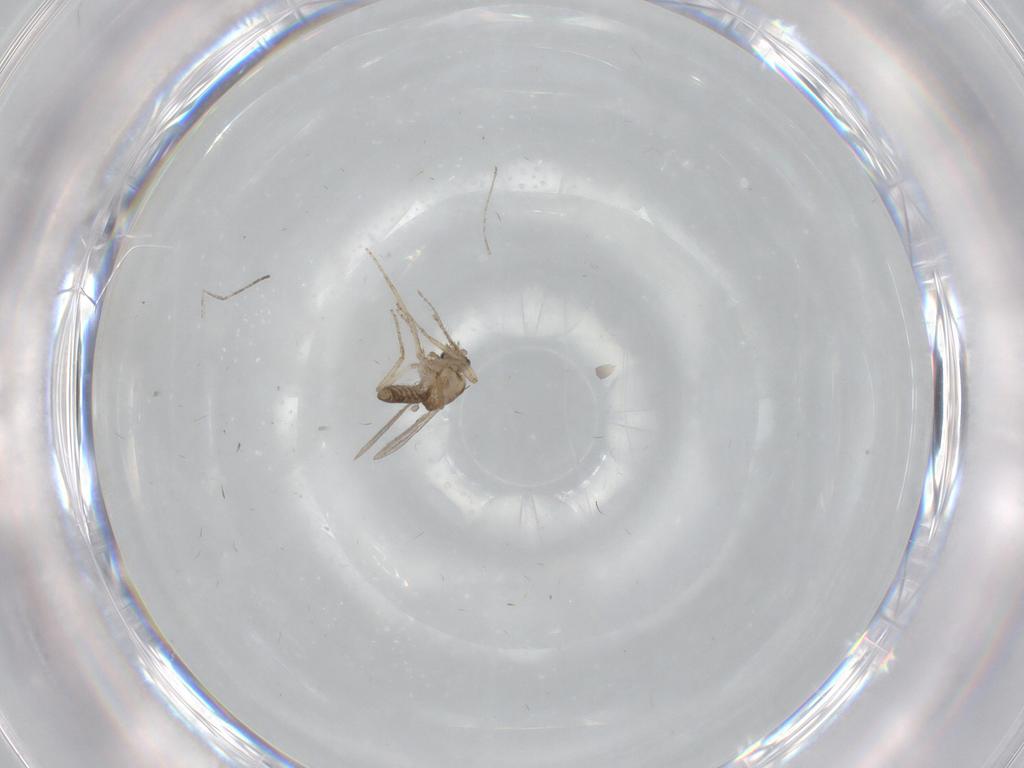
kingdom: Animalia
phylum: Arthropoda
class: Insecta
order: Diptera
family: Ceratopogonidae
